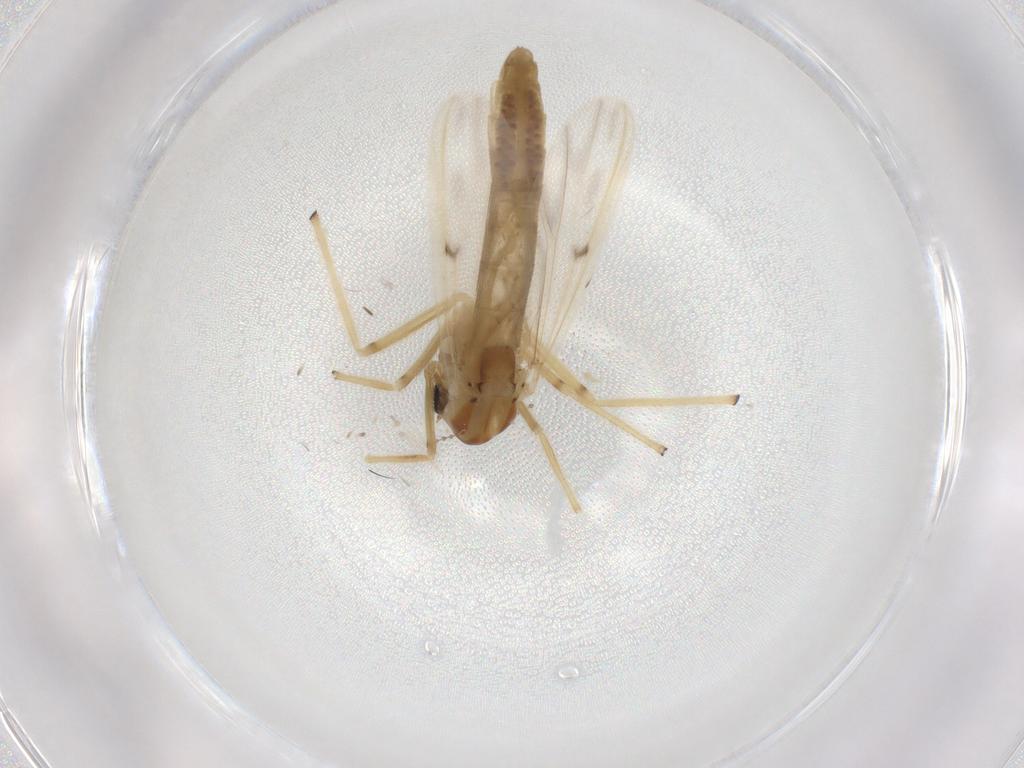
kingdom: Animalia
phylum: Arthropoda
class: Insecta
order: Diptera
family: Chironomidae
